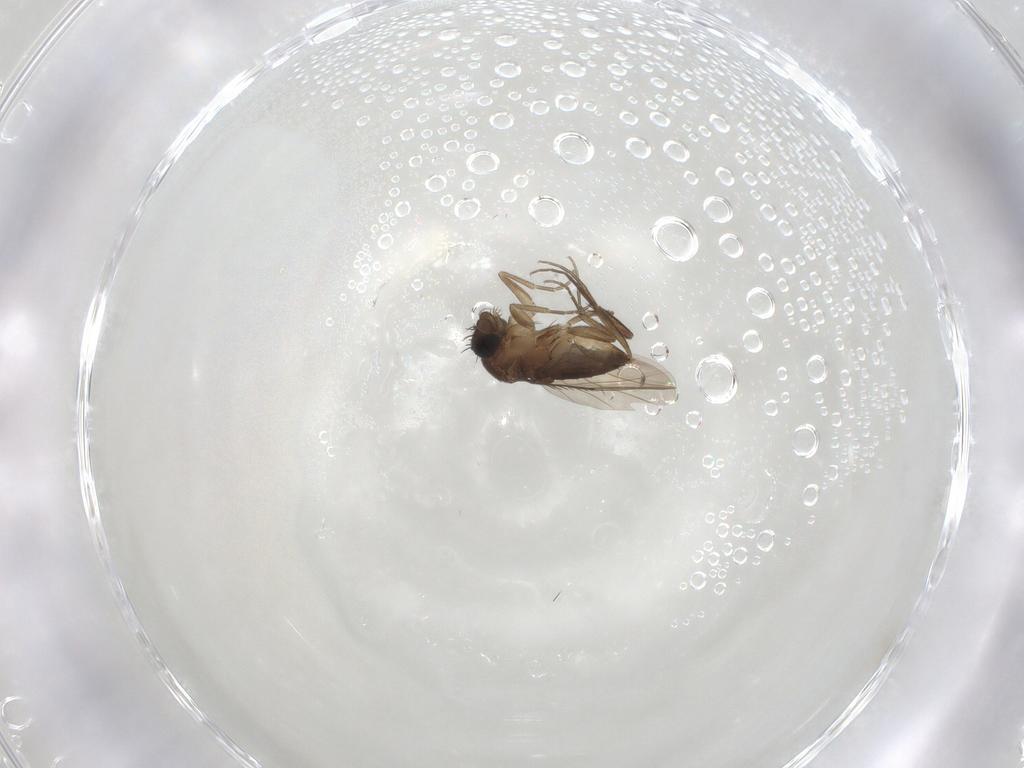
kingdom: Animalia
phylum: Arthropoda
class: Insecta
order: Diptera
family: Phoridae
